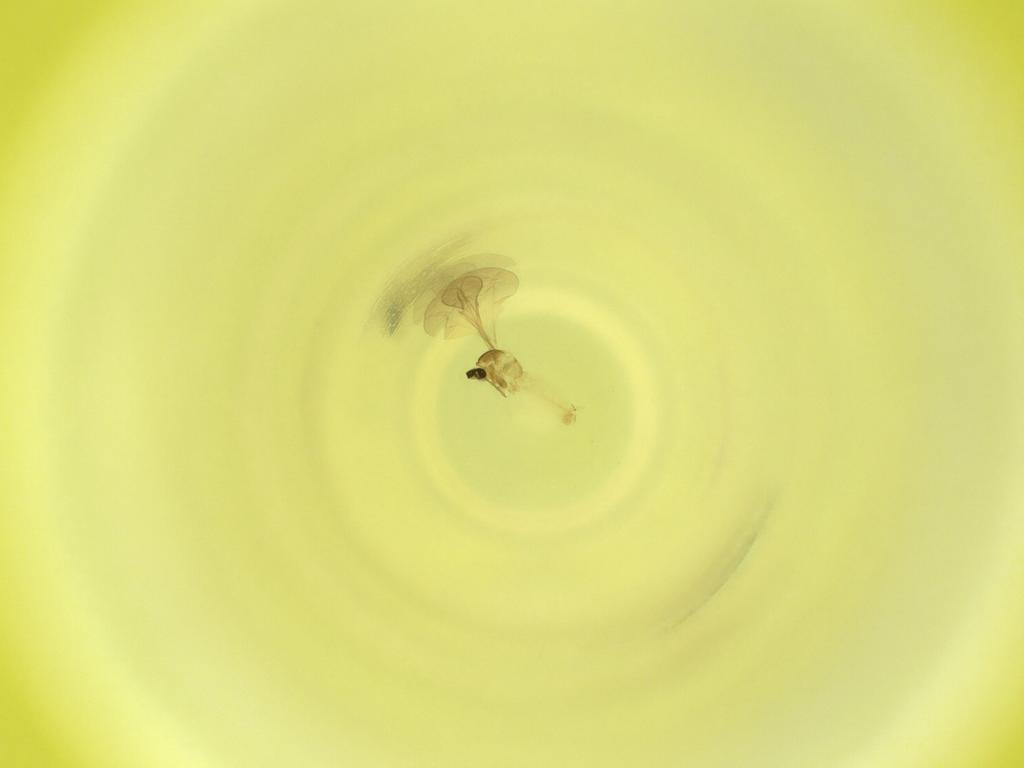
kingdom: Animalia
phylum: Arthropoda
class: Insecta
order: Diptera
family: Cecidomyiidae
